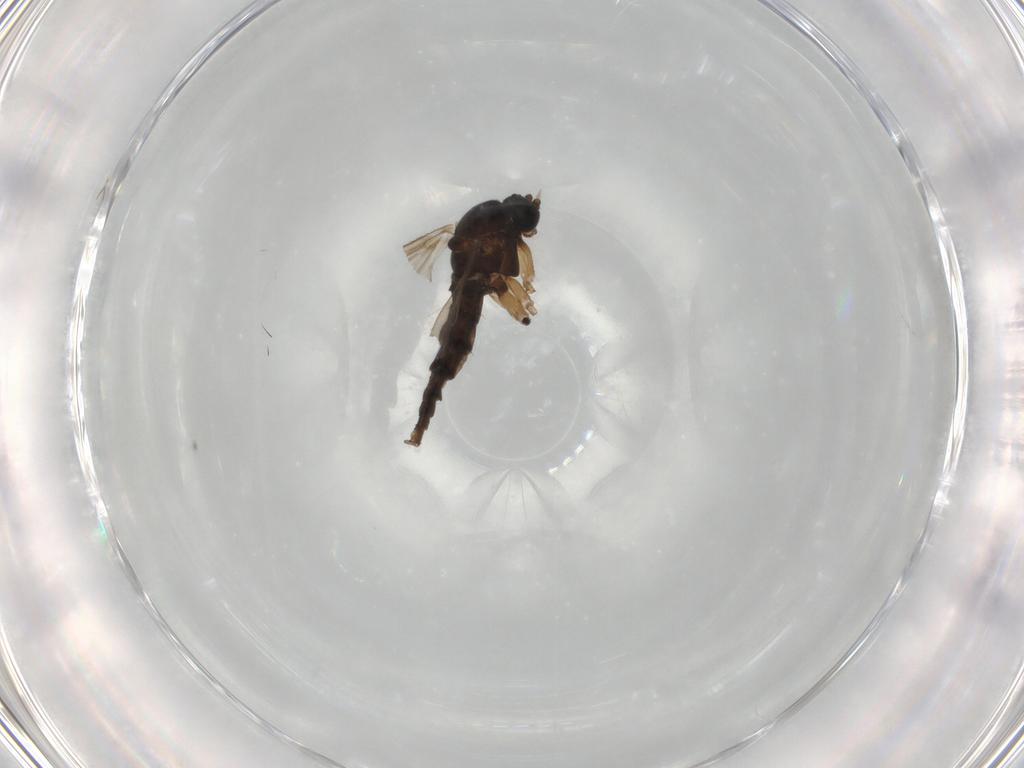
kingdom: Animalia
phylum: Arthropoda
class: Insecta
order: Diptera
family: Sciaridae
